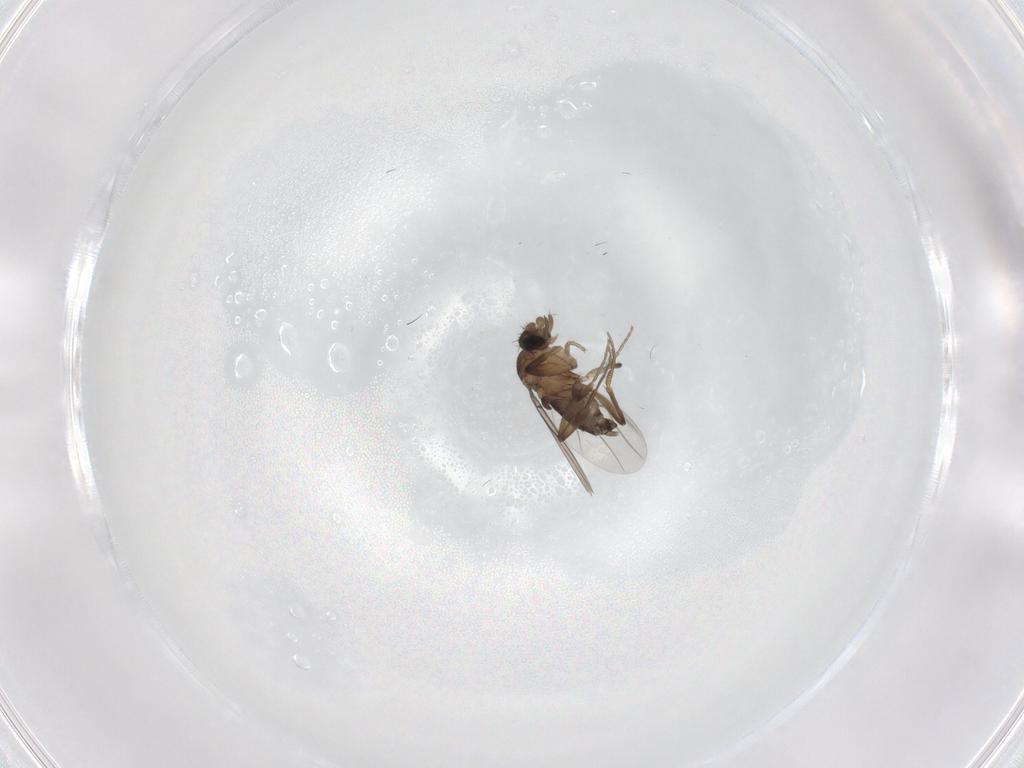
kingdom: Animalia
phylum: Arthropoda
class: Insecta
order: Diptera
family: Phoridae
